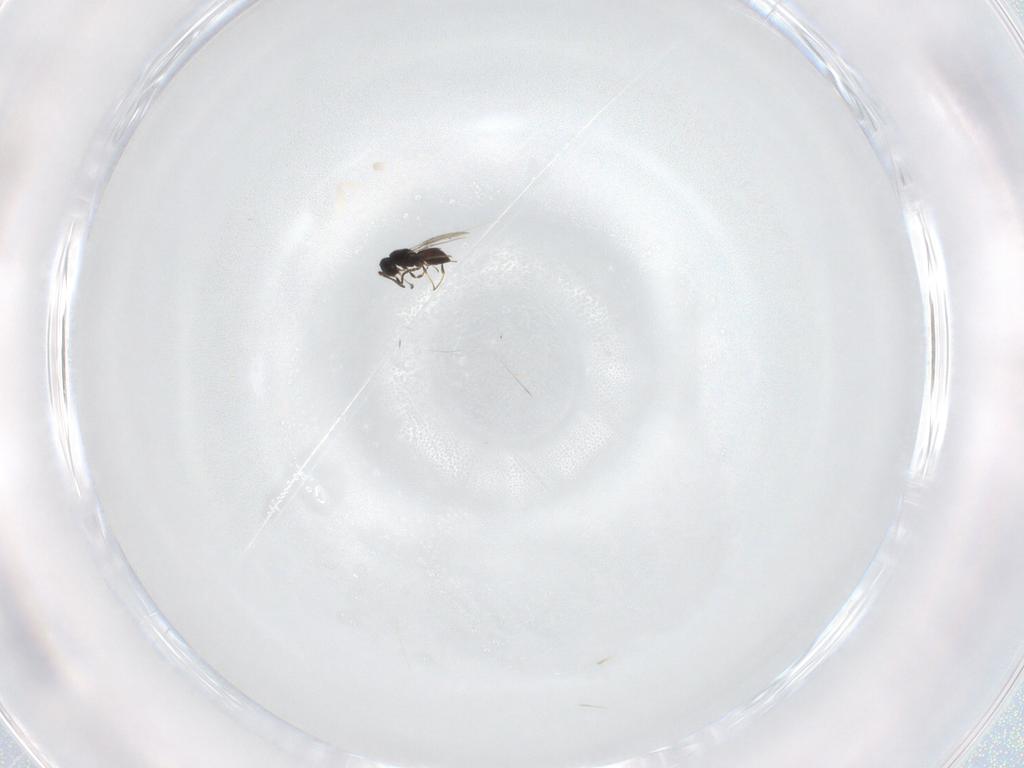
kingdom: Animalia
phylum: Arthropoda
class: Insecta
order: Hymenoptera
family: Scelionidae
